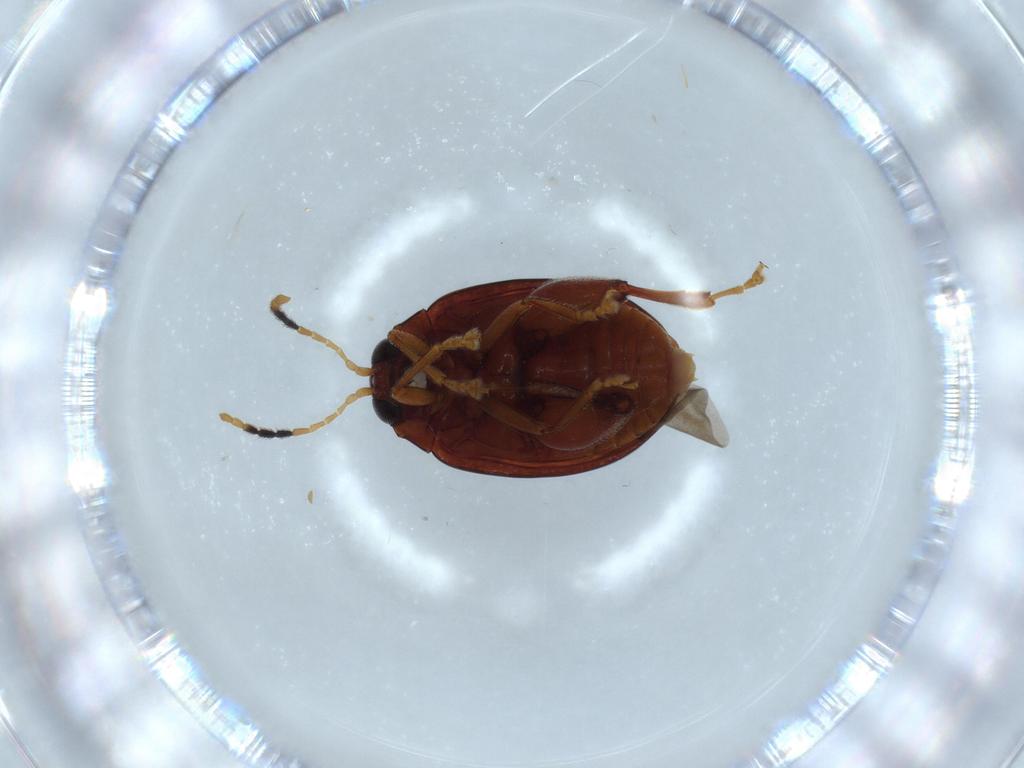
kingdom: Animalia
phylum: Arthropoda
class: Insecta
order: Coleoptera
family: Chrysomelidae
